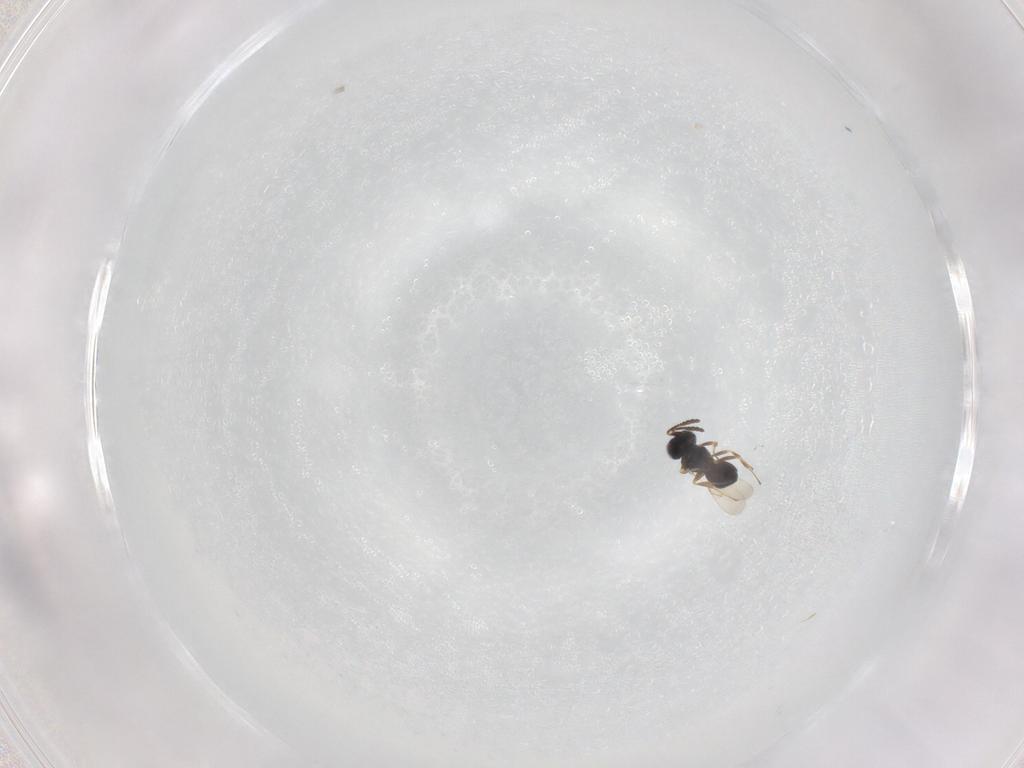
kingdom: Animalia
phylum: Arthropoda
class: Insecta
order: Hymenoptera
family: Scelionidae
